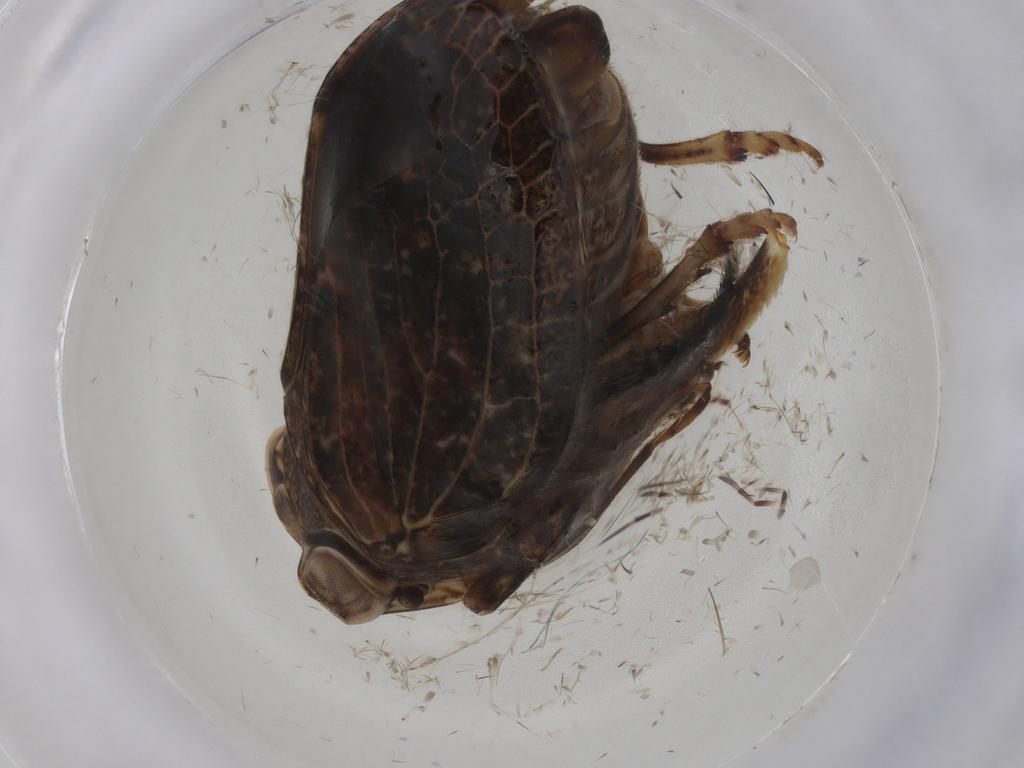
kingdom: Animalia
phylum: Arthropoda
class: Insecta
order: Hemiptera
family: Issidae
